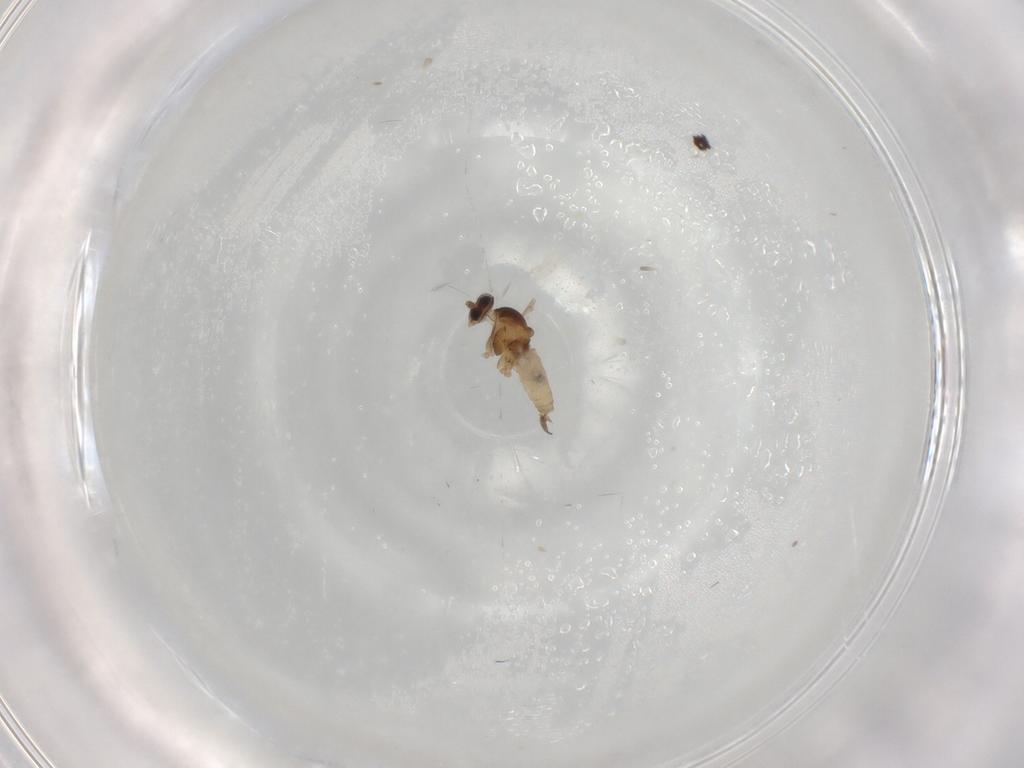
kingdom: Animalia
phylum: Arthropoda
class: Insecta
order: Diptera
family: Mycetophilidae
